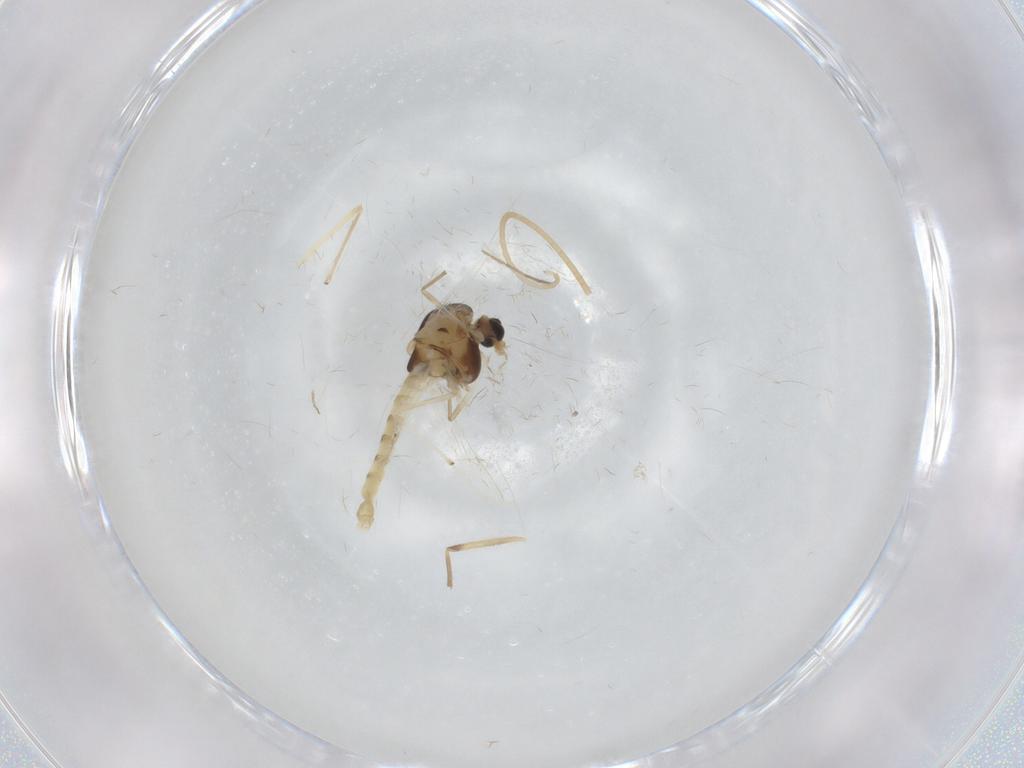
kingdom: Animalia
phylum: Arthropoda
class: Insecta
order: Diptera
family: Chironomidae
